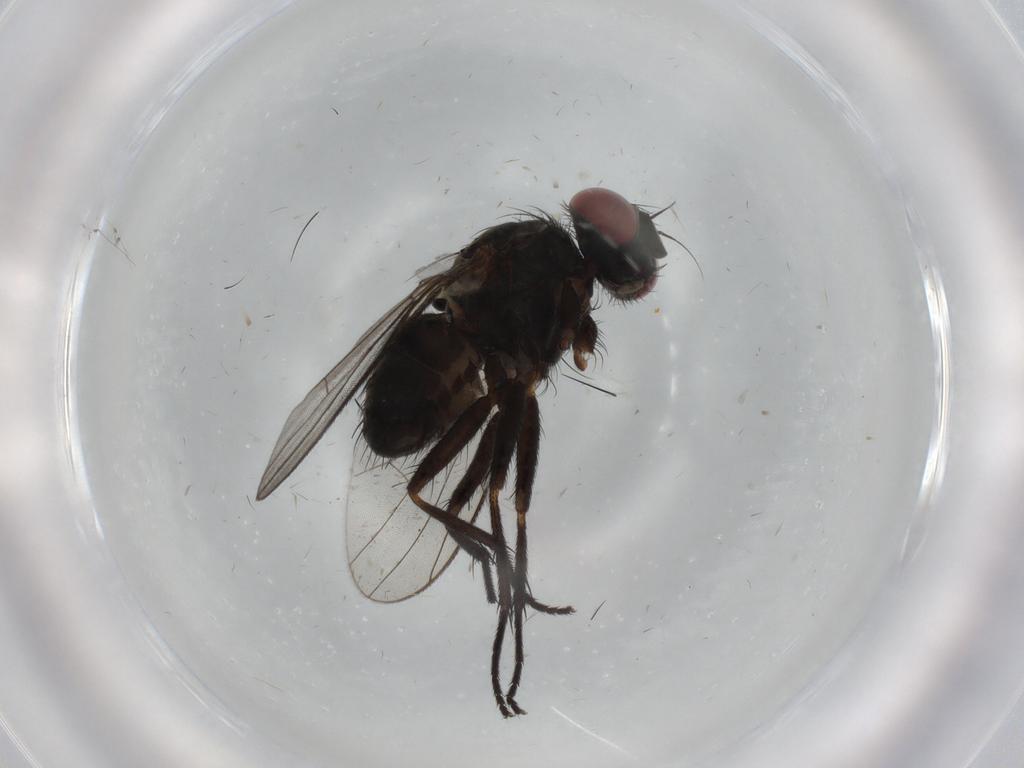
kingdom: Animalia
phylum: Arthropoda
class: Insecta
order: Diptera
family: Muscidae
